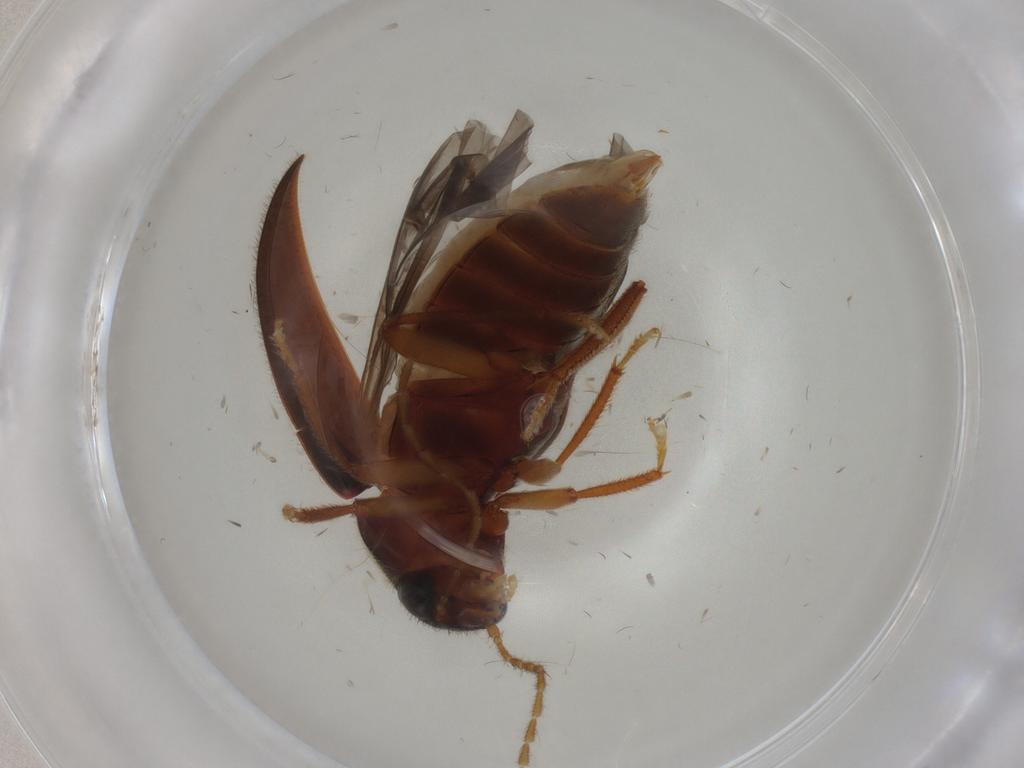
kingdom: Animalia
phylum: Arthropoda
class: Insecta
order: Coleoptera
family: Ptilodactylidae
